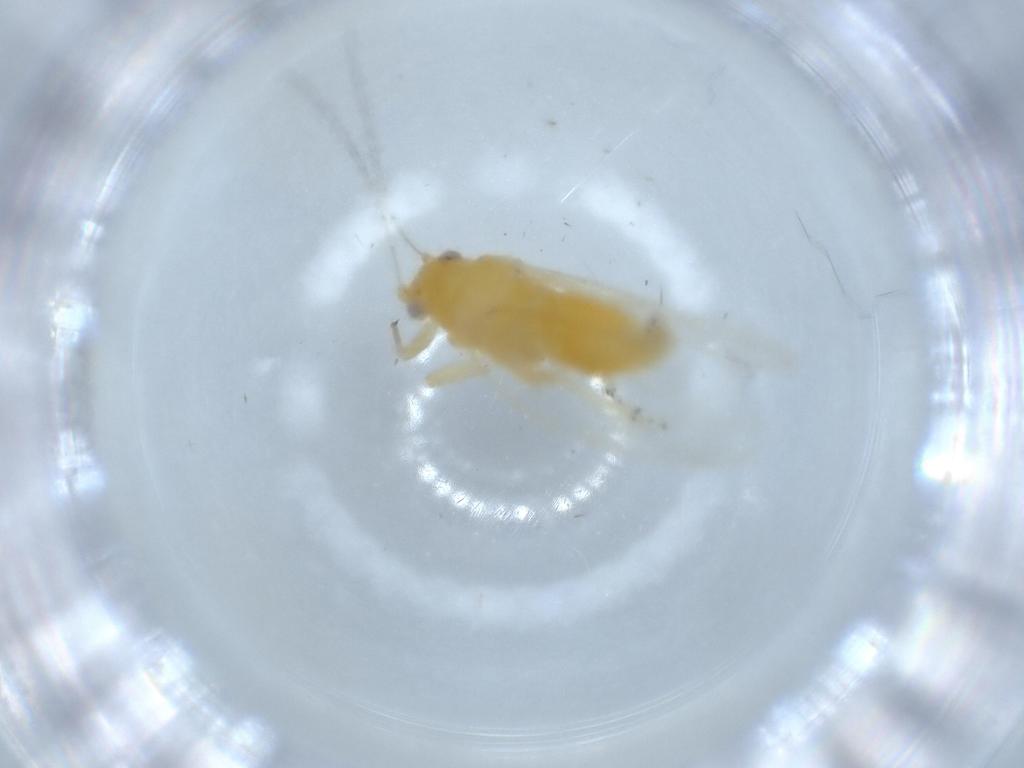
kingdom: Animalia
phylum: Arthropoda
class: Insecta
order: Hemiptera
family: Psyllidae
